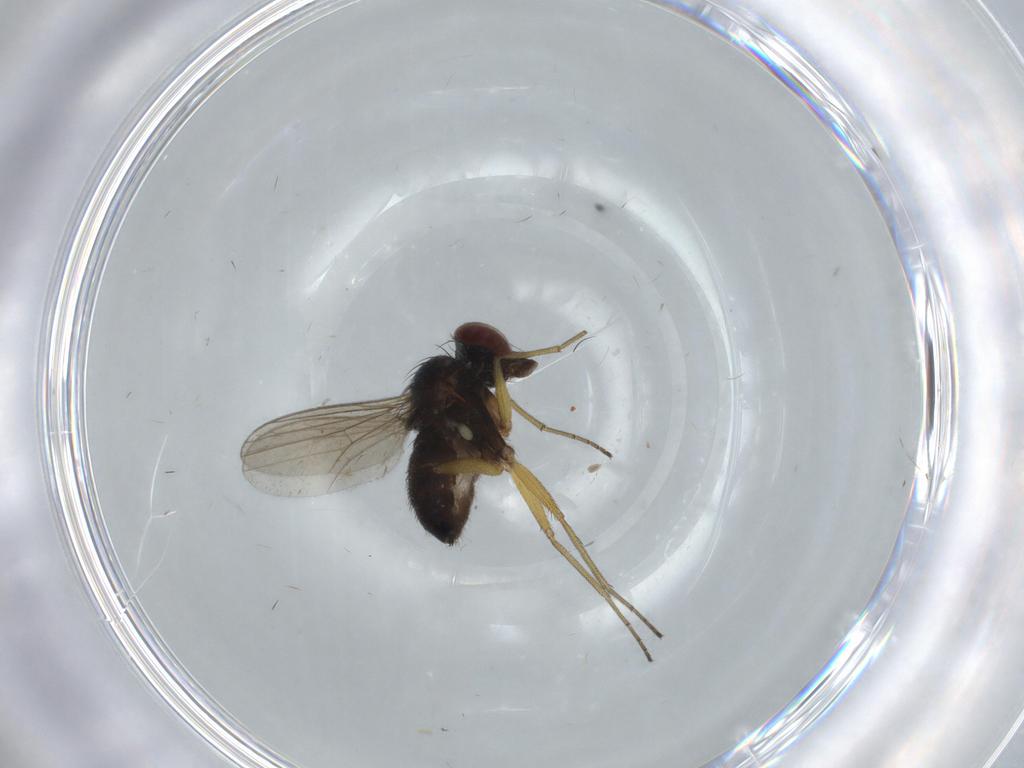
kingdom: Animalia
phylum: Arthropoda
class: Insecta
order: Diptera
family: Dolichopodidae
